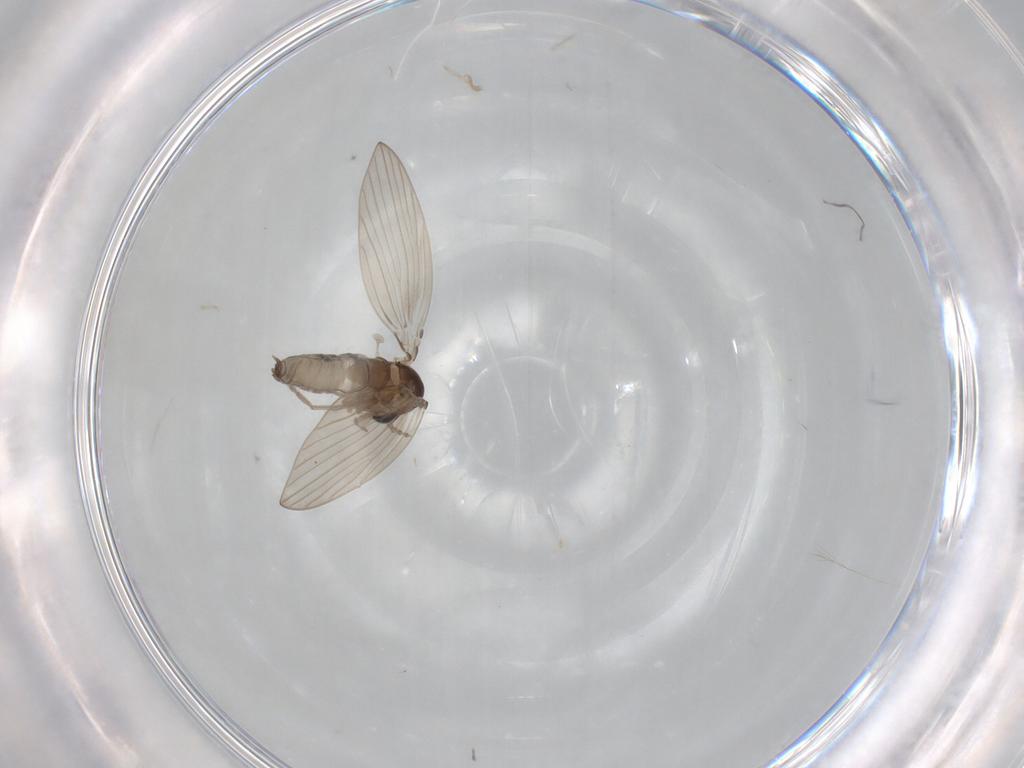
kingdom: Animalia
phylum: Arthropoda
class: Insecta
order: Diptera
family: Psychodidae
